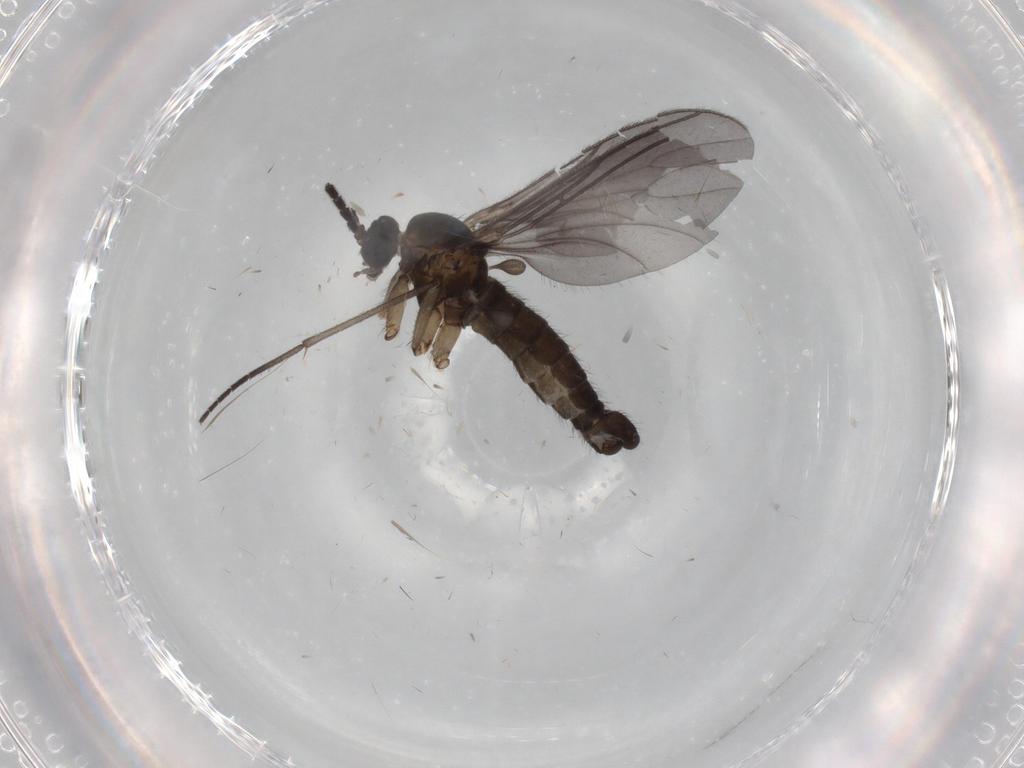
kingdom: Animalia
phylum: Arthropoda
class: Insecta
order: Diptera
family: Sciaridae
